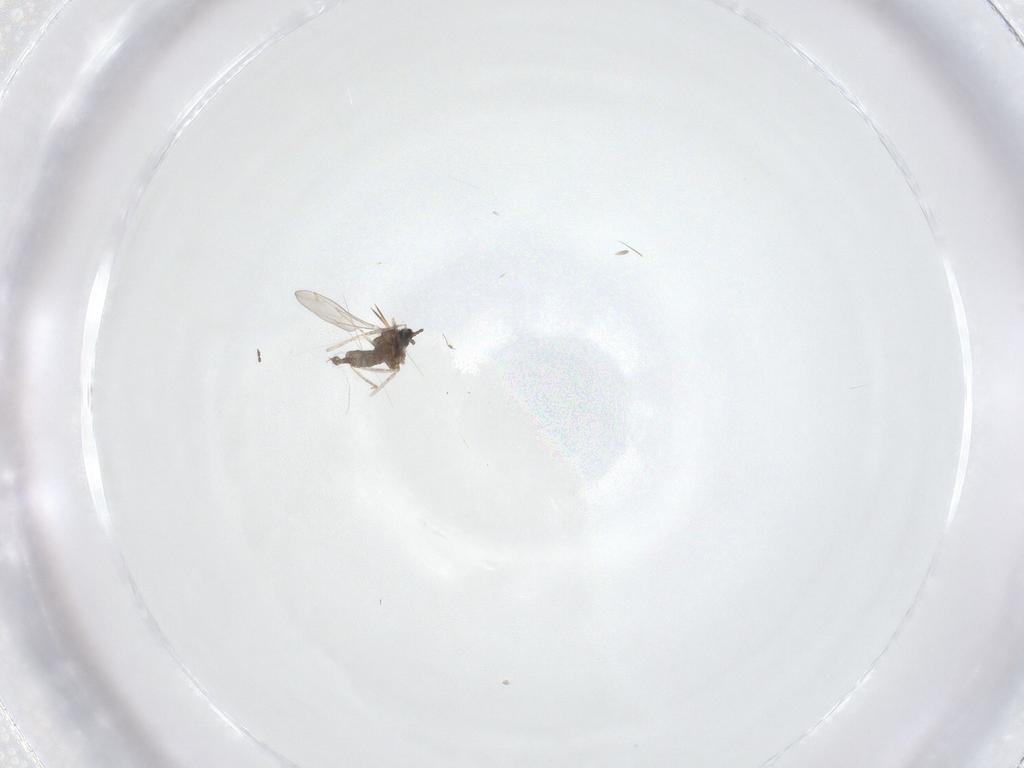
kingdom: Animalia
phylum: Arthropoda
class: Insecta
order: Diptera
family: Cecidomyiidae
